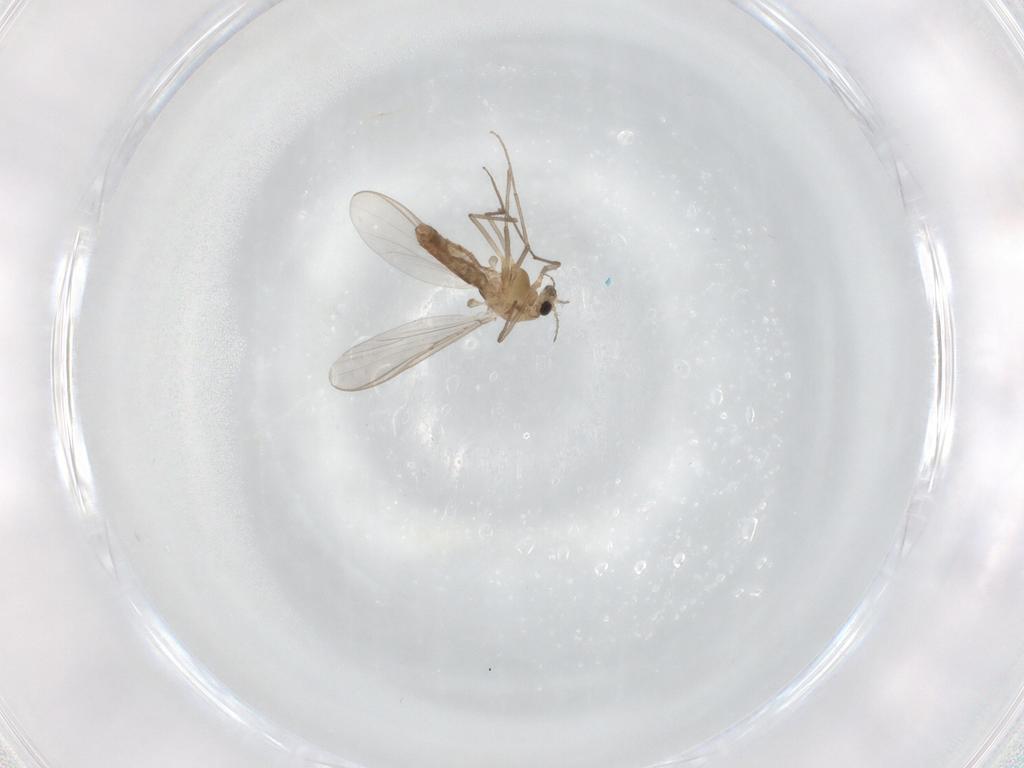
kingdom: Animalia
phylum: Arthropoda
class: Insecta
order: Diptera
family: Chironomidae
